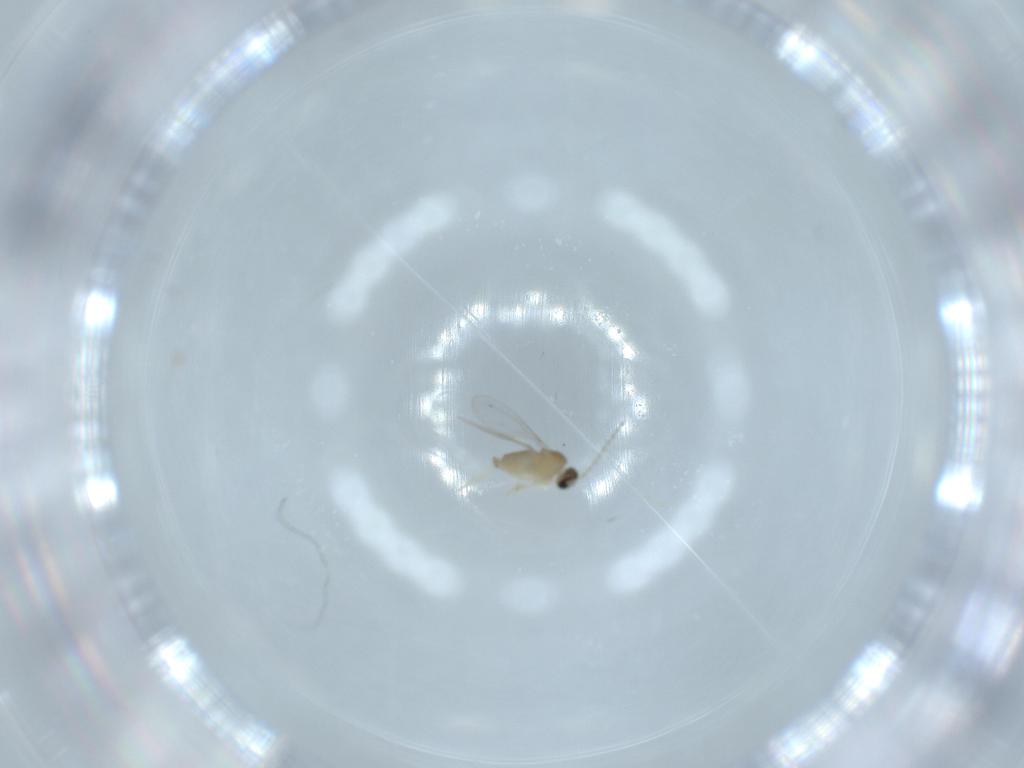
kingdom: Animalia
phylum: Arthropoda
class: Insecta
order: Diptera
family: Cecidomyiidae
